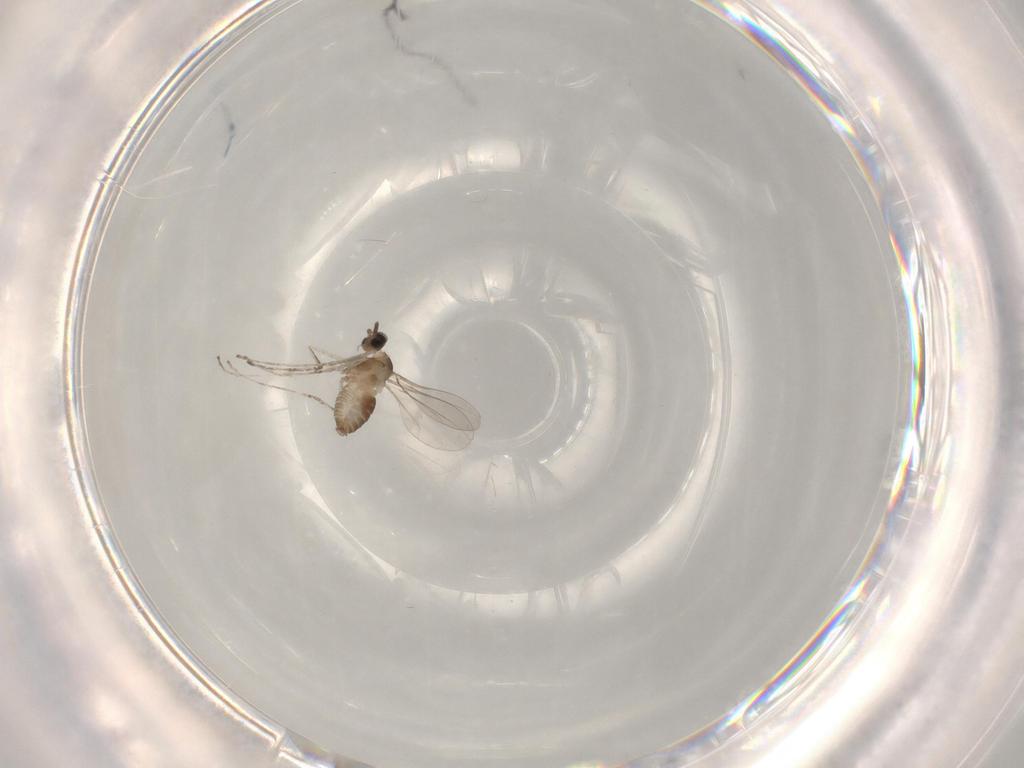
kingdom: Animalia
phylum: Arthropoda
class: Insecta
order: Diptera
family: Cecidomyiidae
